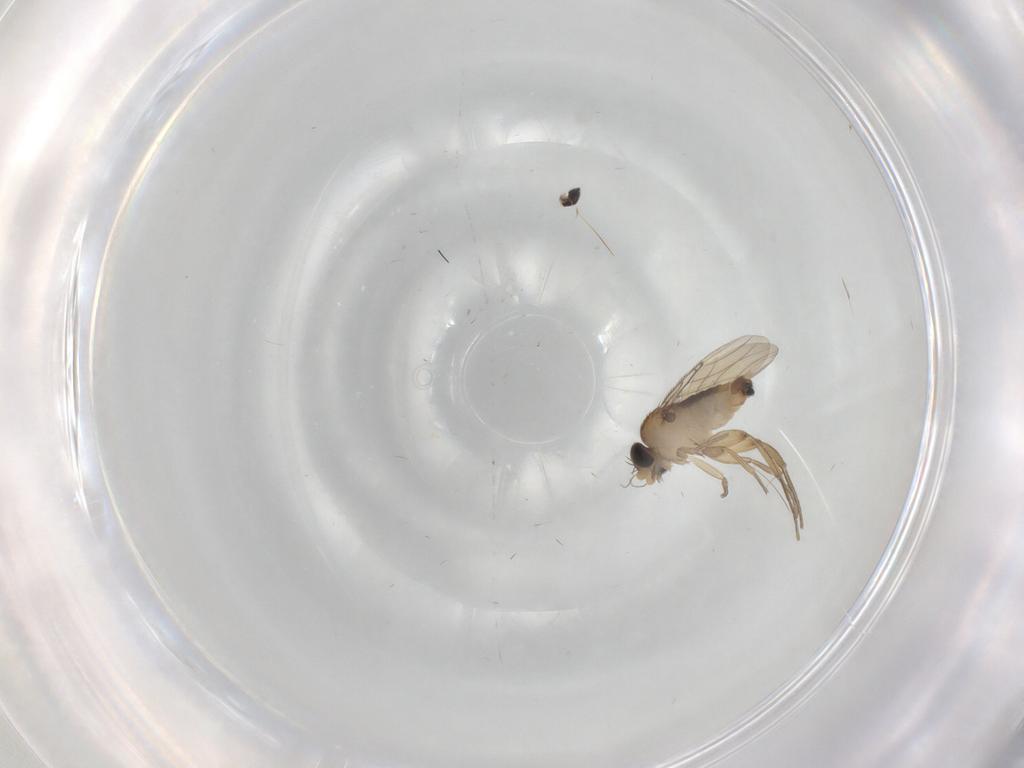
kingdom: Animalia
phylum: Arthropoda
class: Insecta
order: Diptera
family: Phoridae
